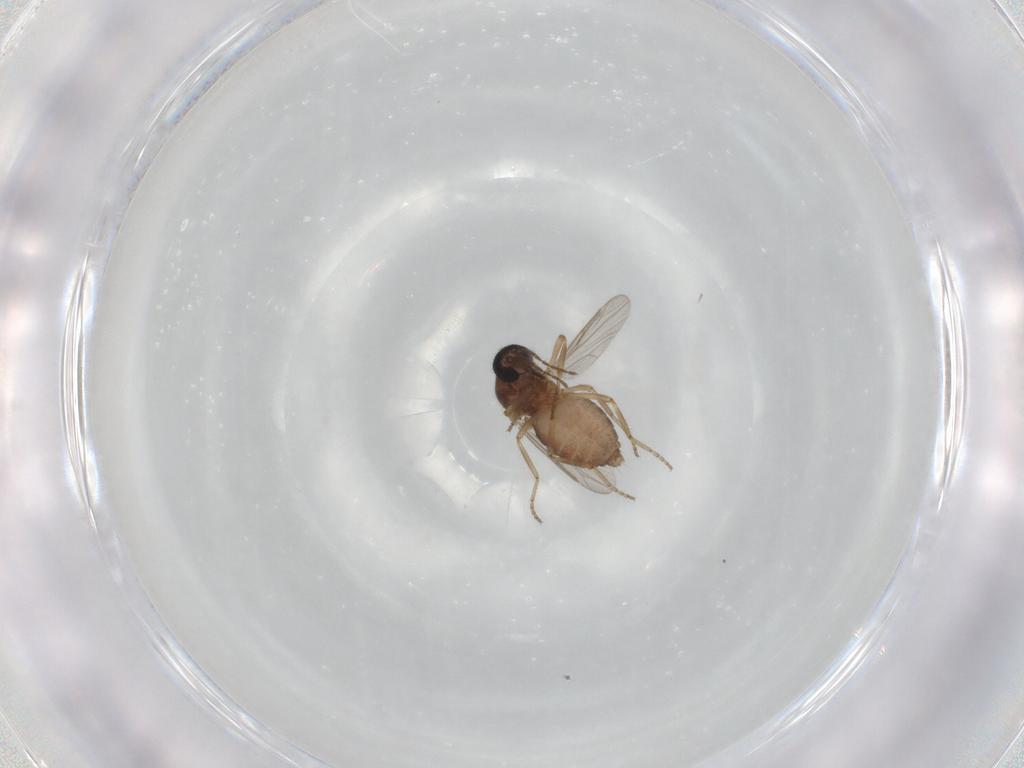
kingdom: Animalia
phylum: Arthropoda
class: Insecta
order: Diptera
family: Ceratopogonidae
